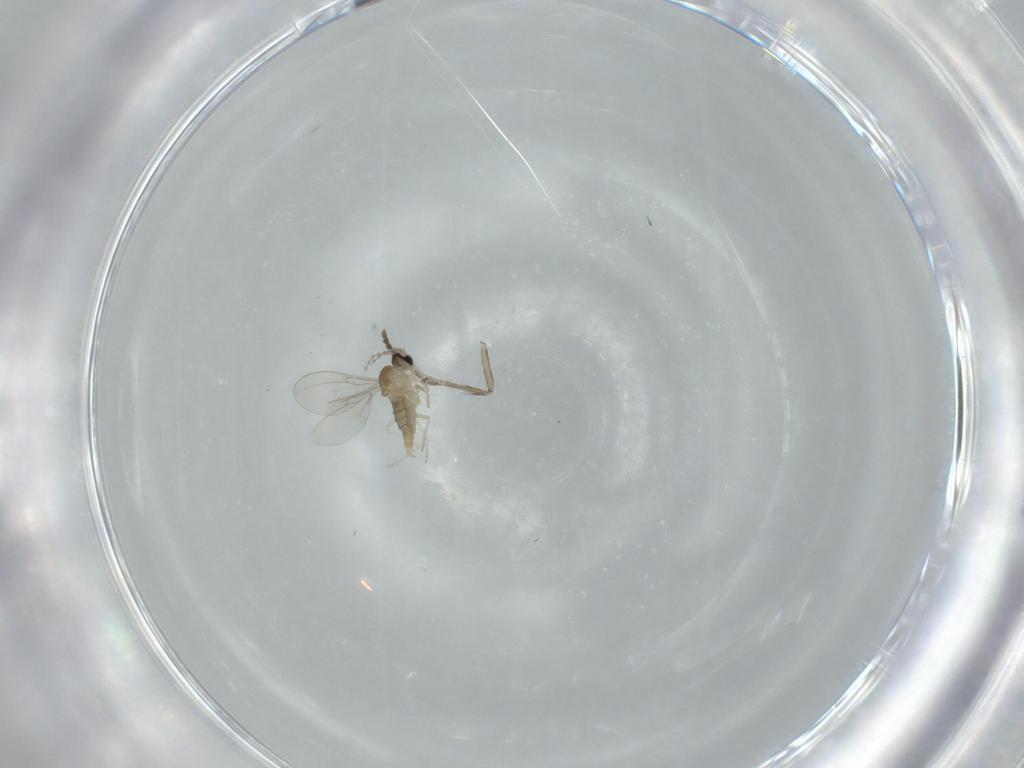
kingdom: Animalia
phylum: Arthropoda
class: Insecta
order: Diptera
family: Cecidomyiidae
